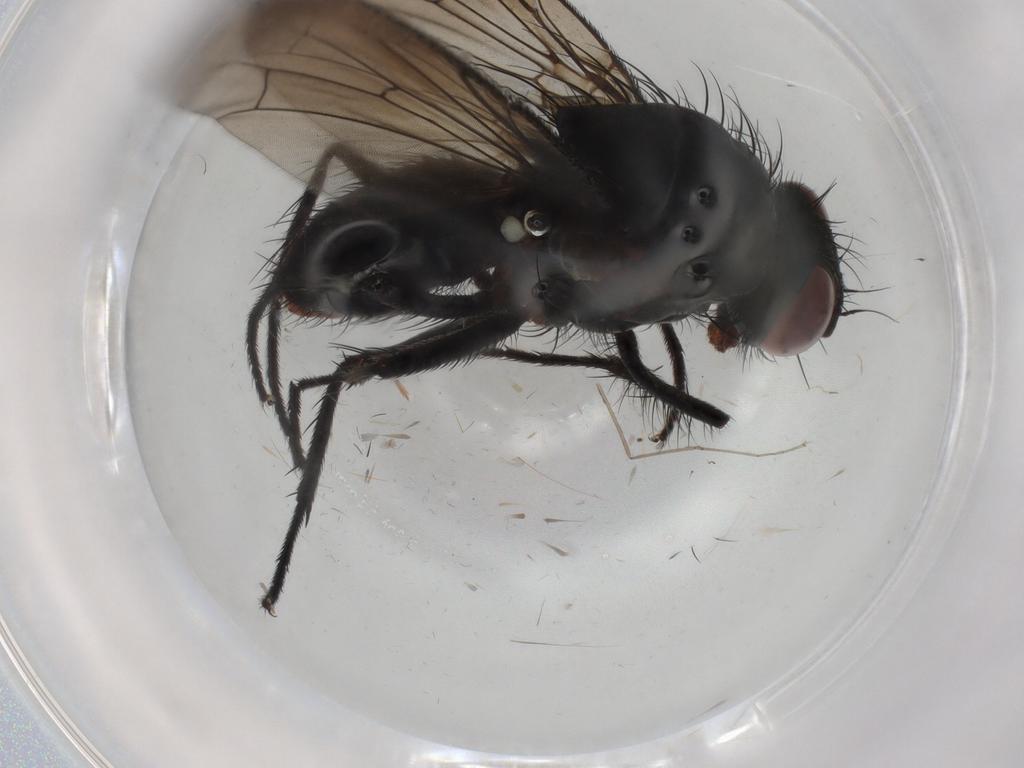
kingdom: Animalia
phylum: Arthropoda
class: Insecta
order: Diptera
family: Anthomyiidae
